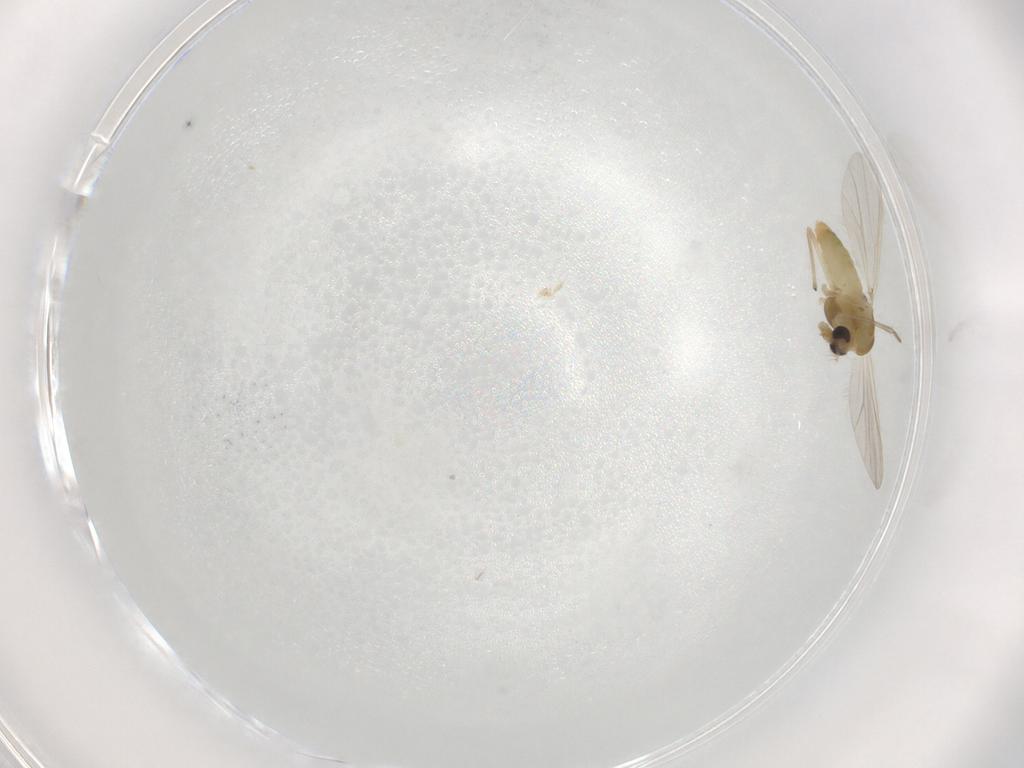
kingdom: Animalia
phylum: Arthropoda
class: Insecta
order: Diptera
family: Chironomidae
